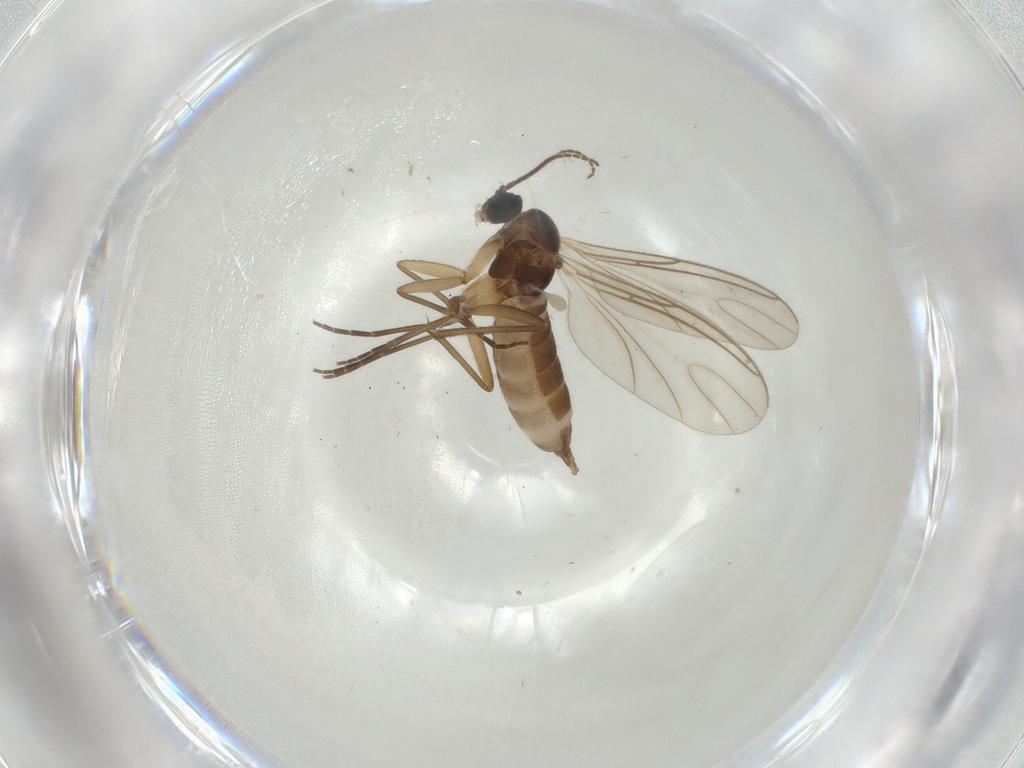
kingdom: Animalia
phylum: Arthropoda
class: Insecta
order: Diptera
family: Sciaridae
